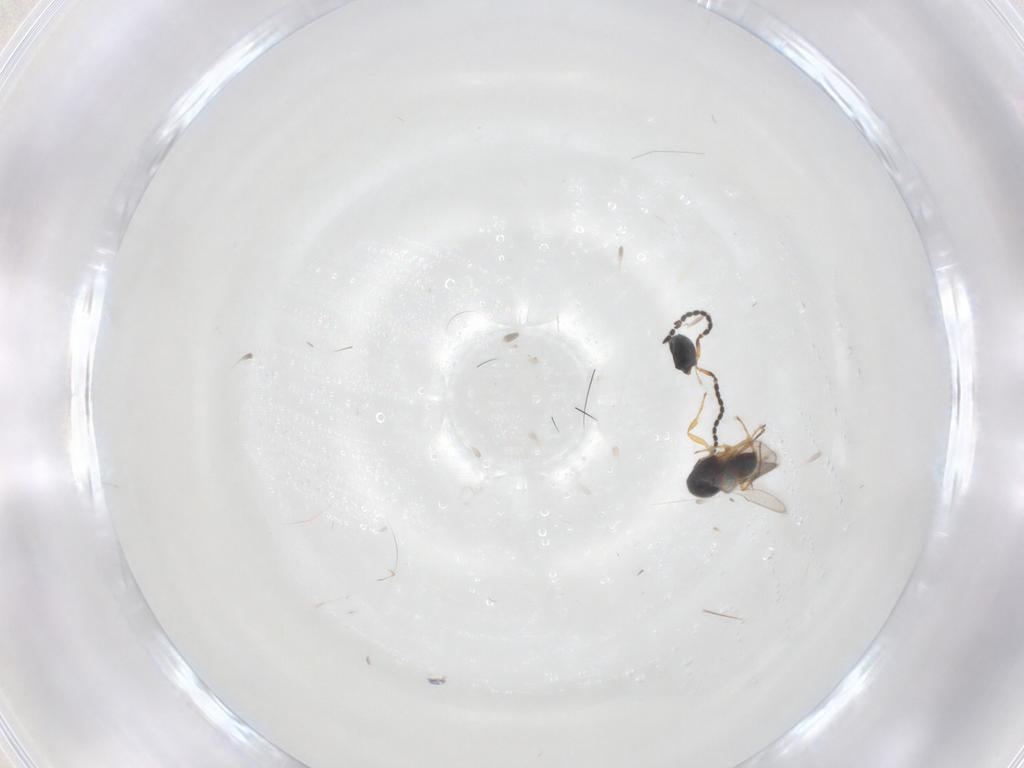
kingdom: Animalia
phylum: Arthropoda
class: Insecta
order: Hymenoptera
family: Scelionidae
